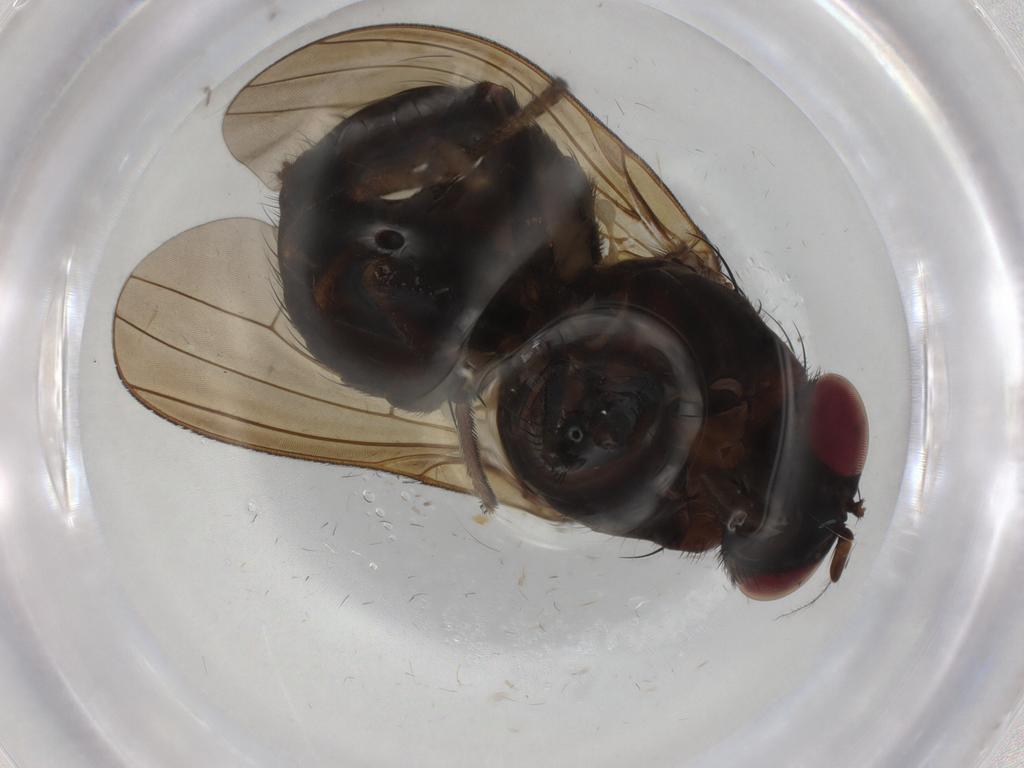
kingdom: Animalia
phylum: Arthropoda
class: Insecta
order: Diptera
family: Lauxaniidae
